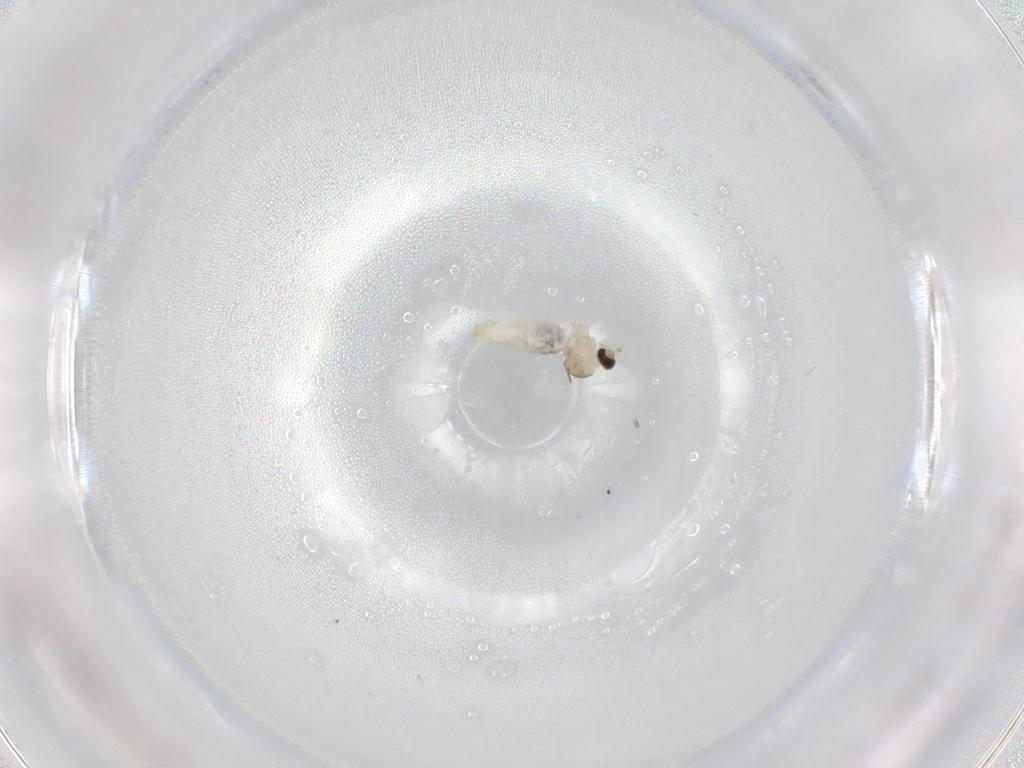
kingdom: Animalia
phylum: Arthropoda
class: Insecta
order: Diptera
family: Cecidomyiidae
